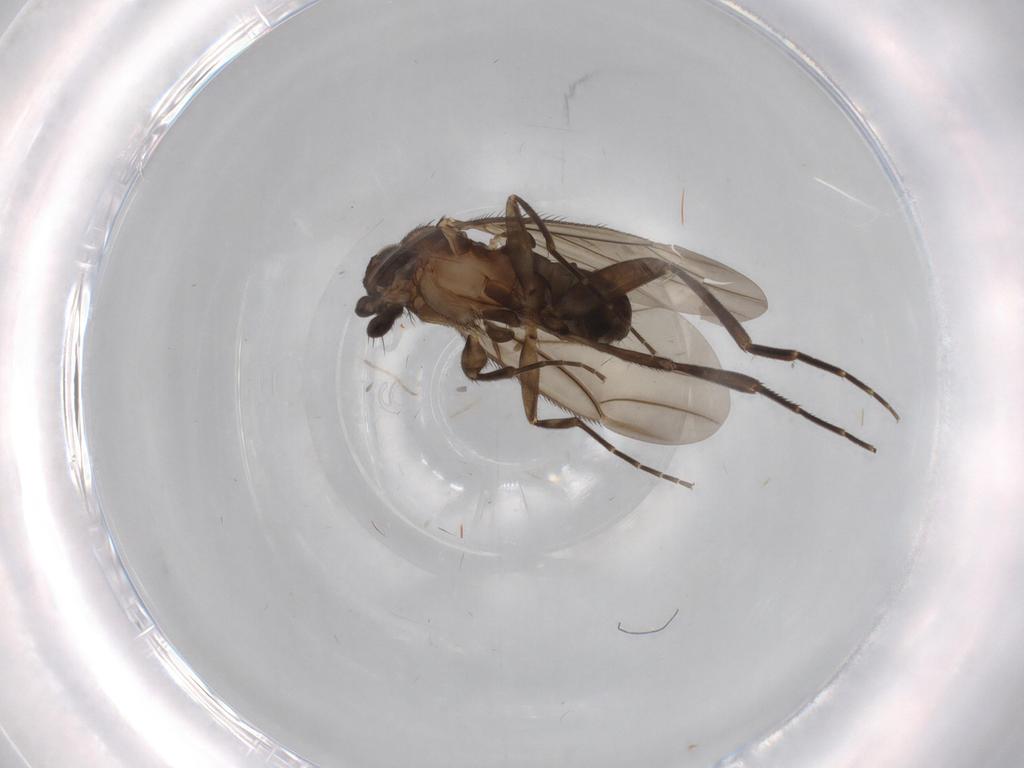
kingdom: Animalia
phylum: Arthropoda
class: Insecta
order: Diptera
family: Phoridae
